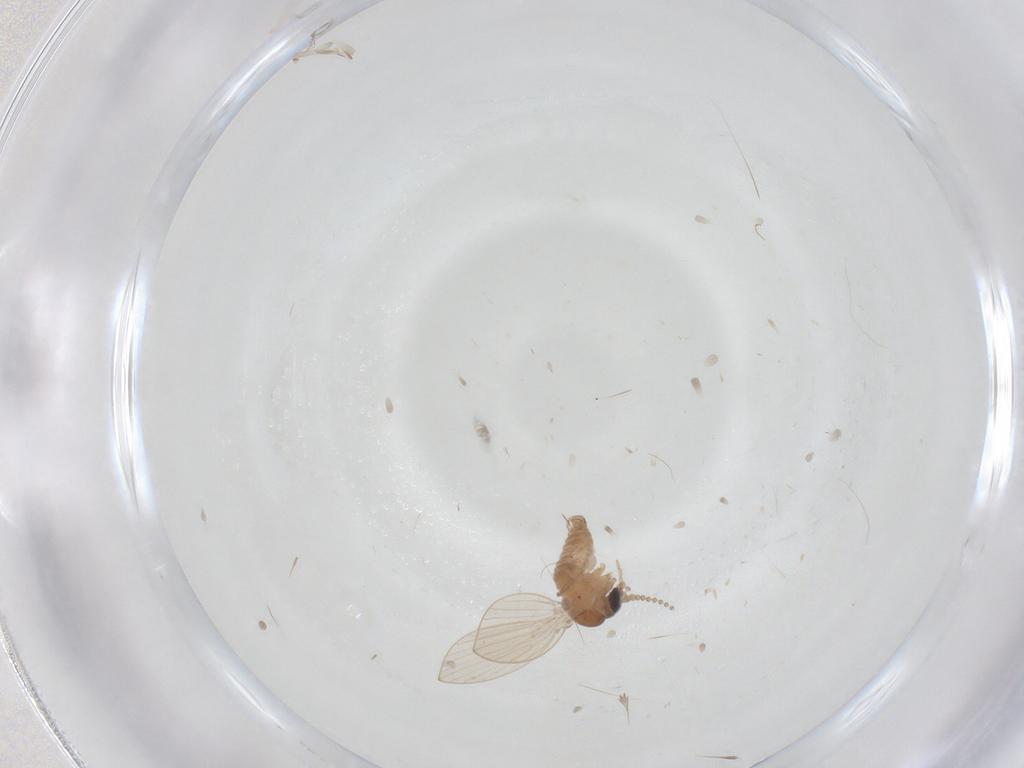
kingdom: Animalia
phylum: Arthropoda
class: Insecta
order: Diptera
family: Psychodidae
